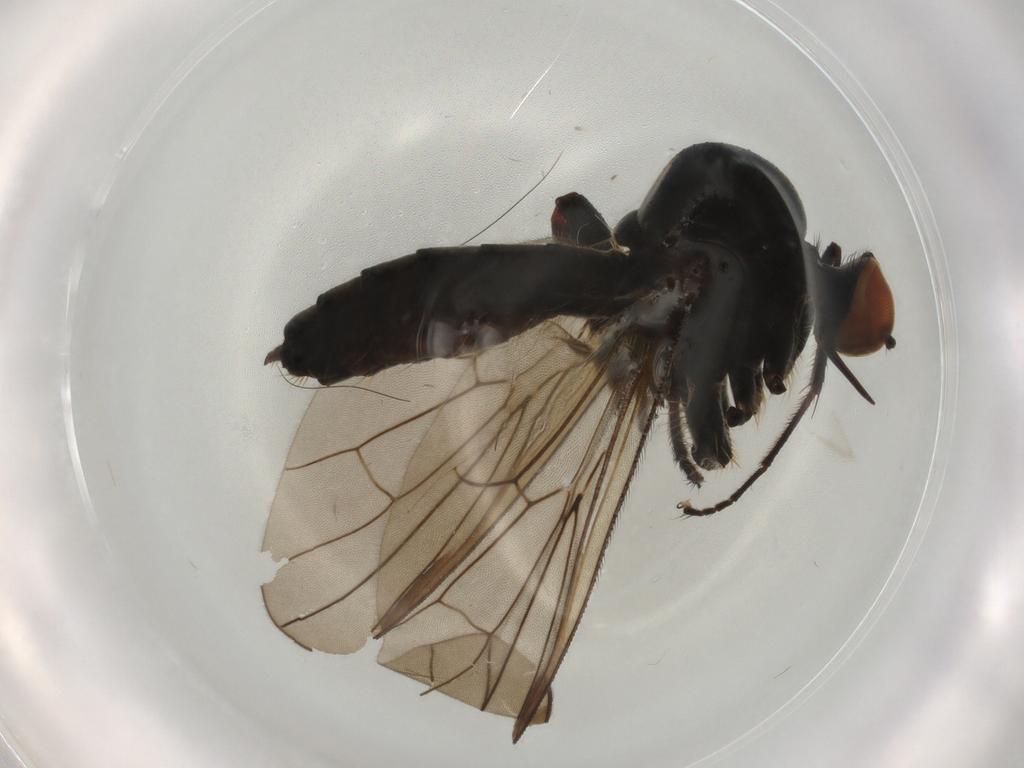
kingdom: Animalia
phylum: Arthropoda
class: Insecta
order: Diptera
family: Hybotidae
